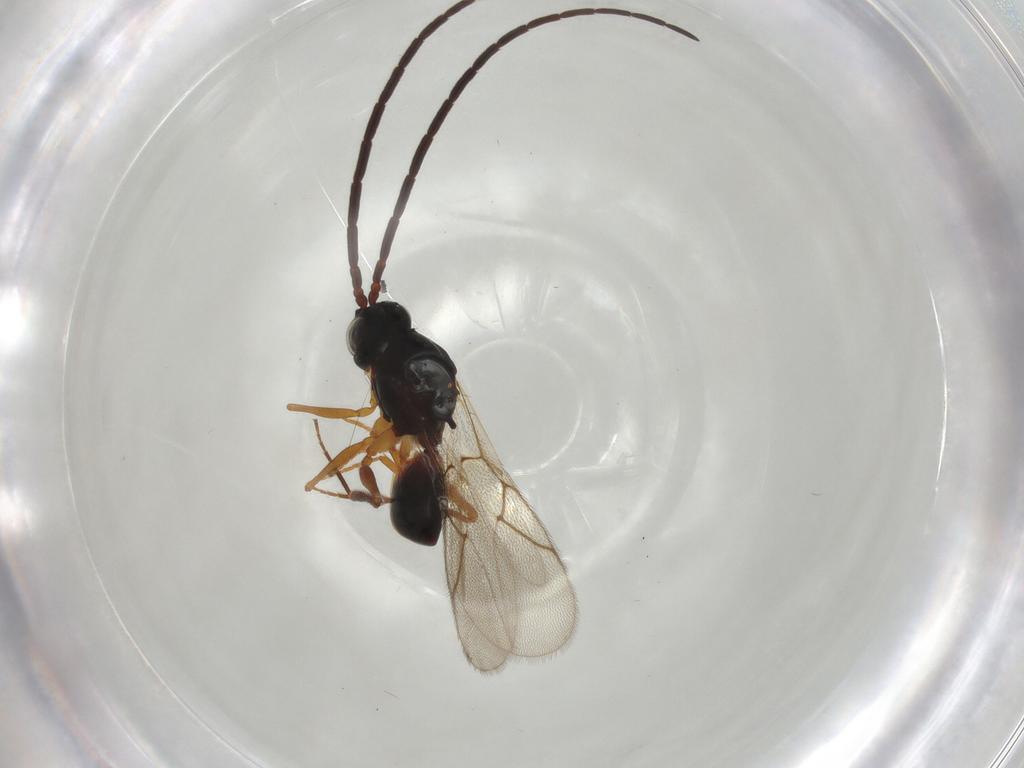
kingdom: Animalia
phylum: Arthropoda
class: Insecta
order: Hymenoptera
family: Figitidae
